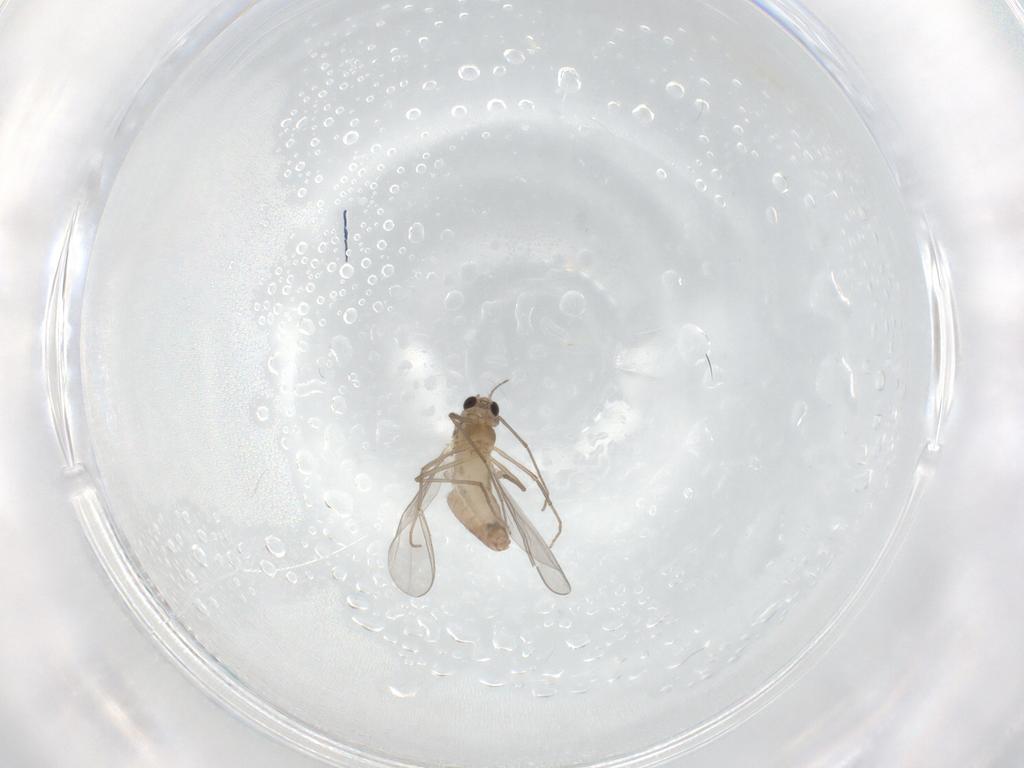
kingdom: Animalia
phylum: Arthropoda
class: Insecta
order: Diptera
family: Chironomidae
